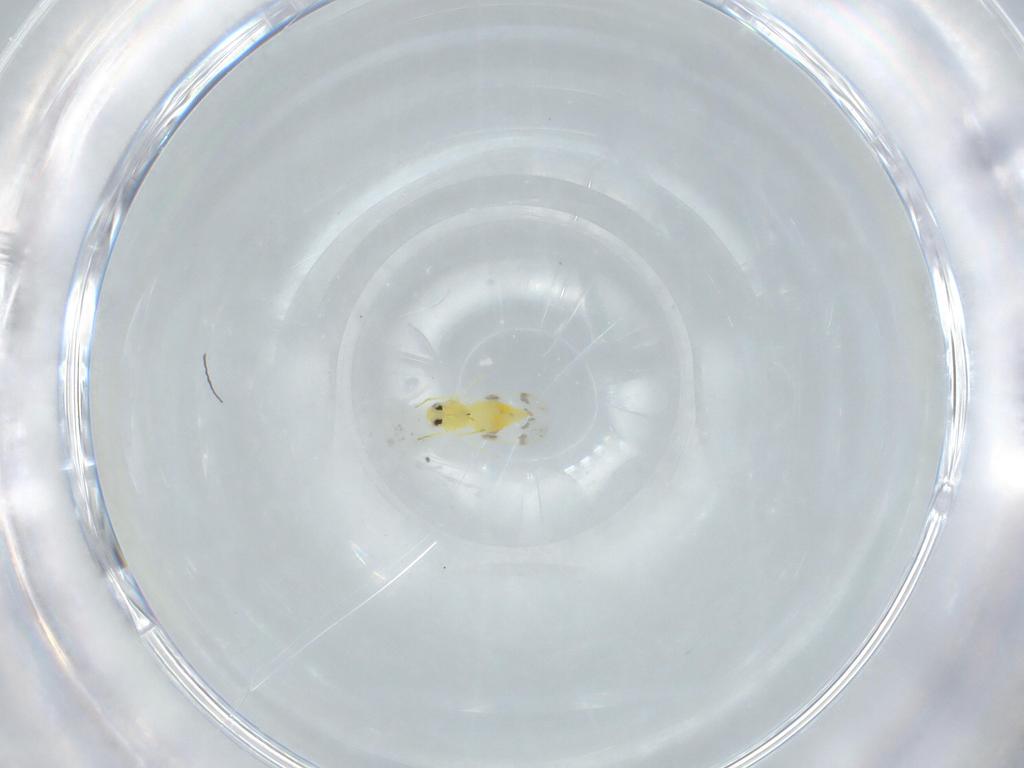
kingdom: Animalia
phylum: Arthropoda
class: Insecta
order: Hemiptera
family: Aleyrodidae
